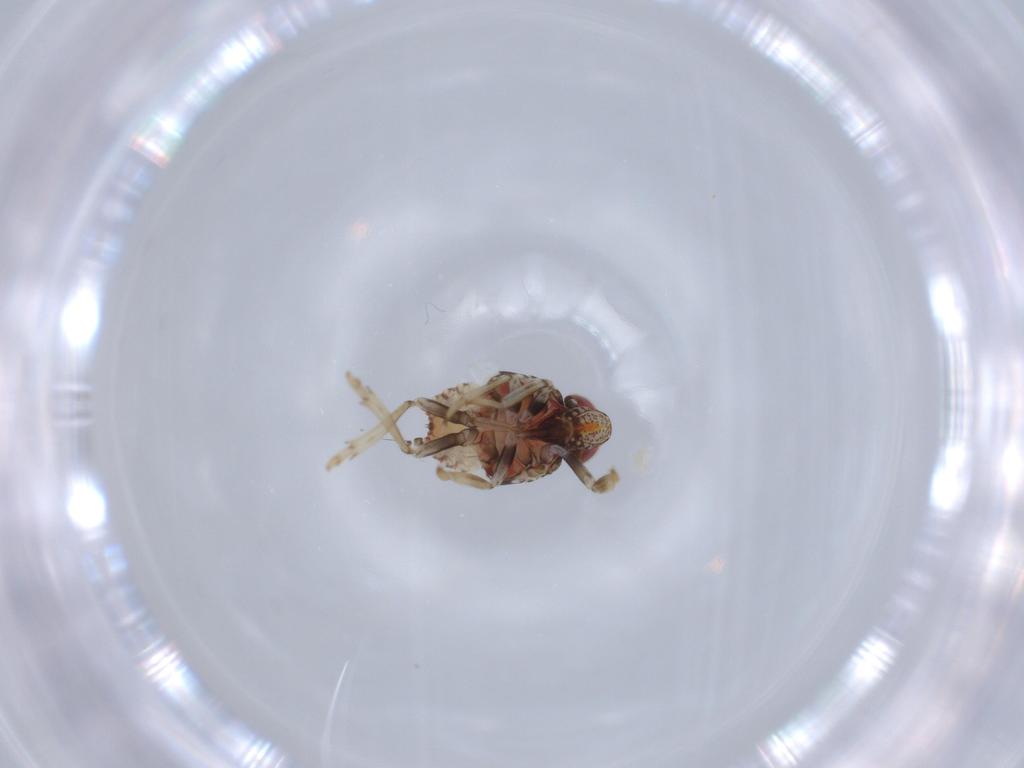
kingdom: Animalia
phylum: Arthropoda
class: Insecta
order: Hemiptera
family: Issidae
